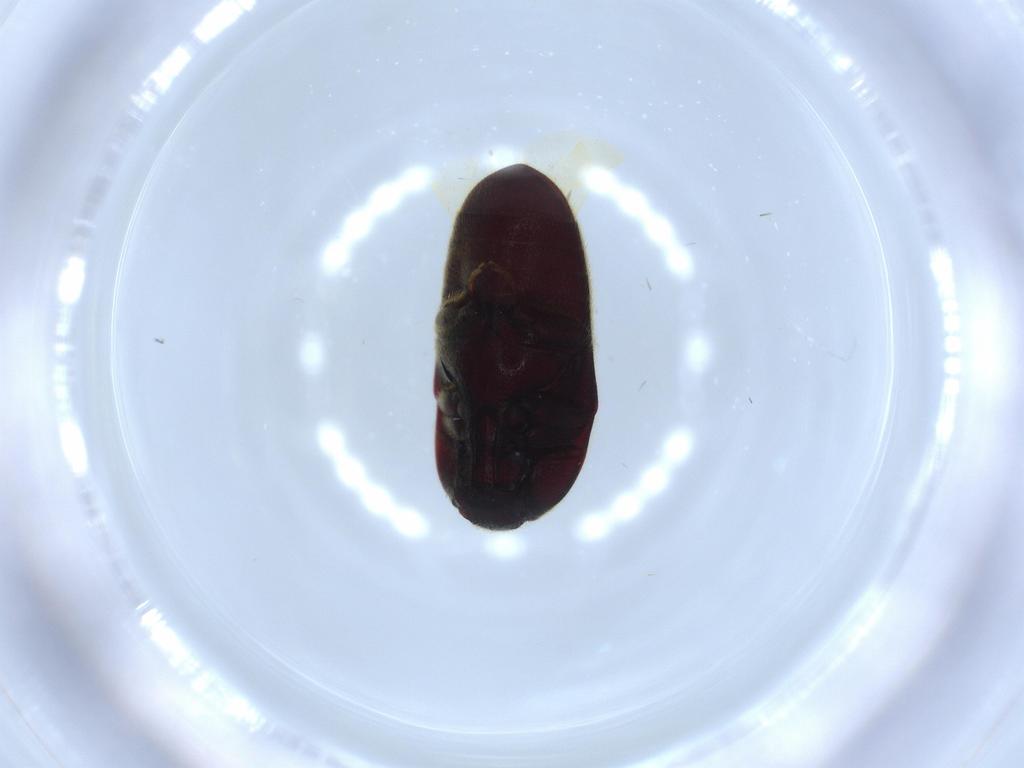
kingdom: Animalia
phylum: Arthropoda
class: Insecta
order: Coleoptera
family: Throscidae
